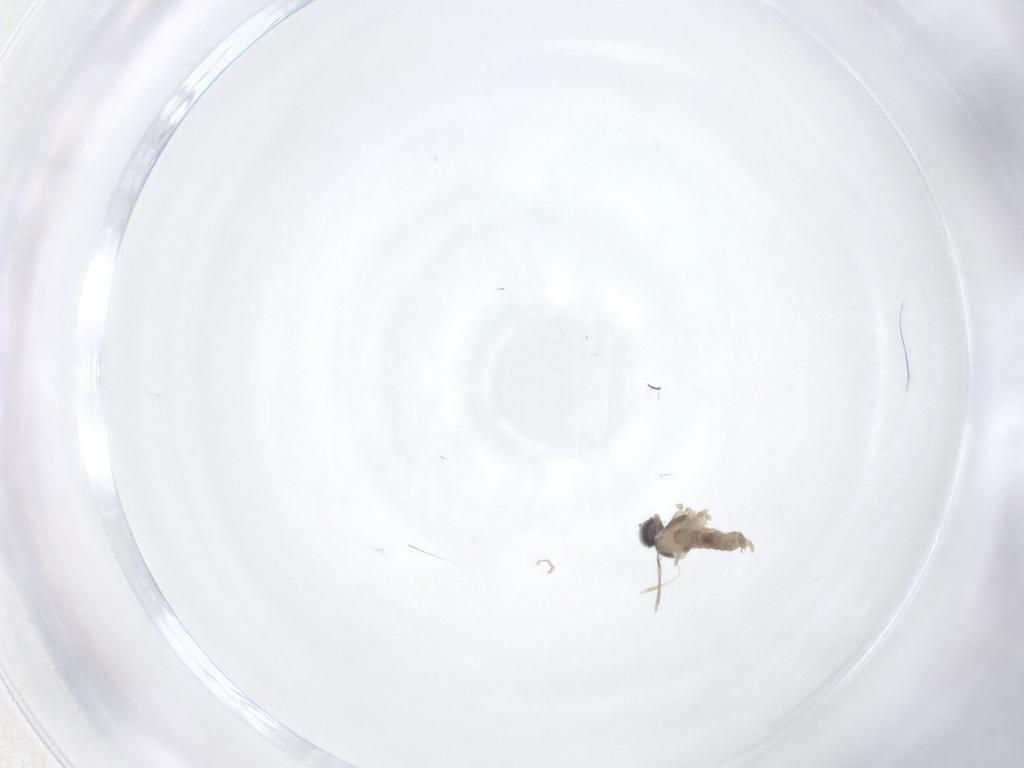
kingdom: Animalia
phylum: Arthropoda
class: Insecta
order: Diptera
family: Cecidomyiidae
